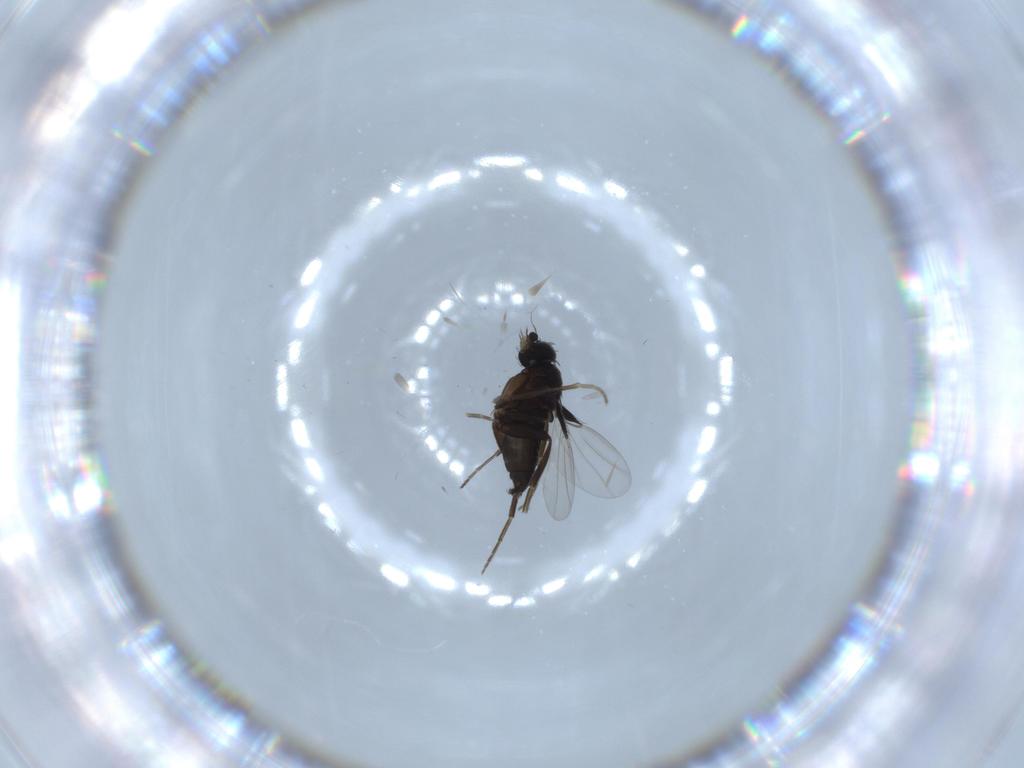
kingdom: Animalia
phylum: Arthropoda
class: Insecta
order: Diptera
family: Phoridae
